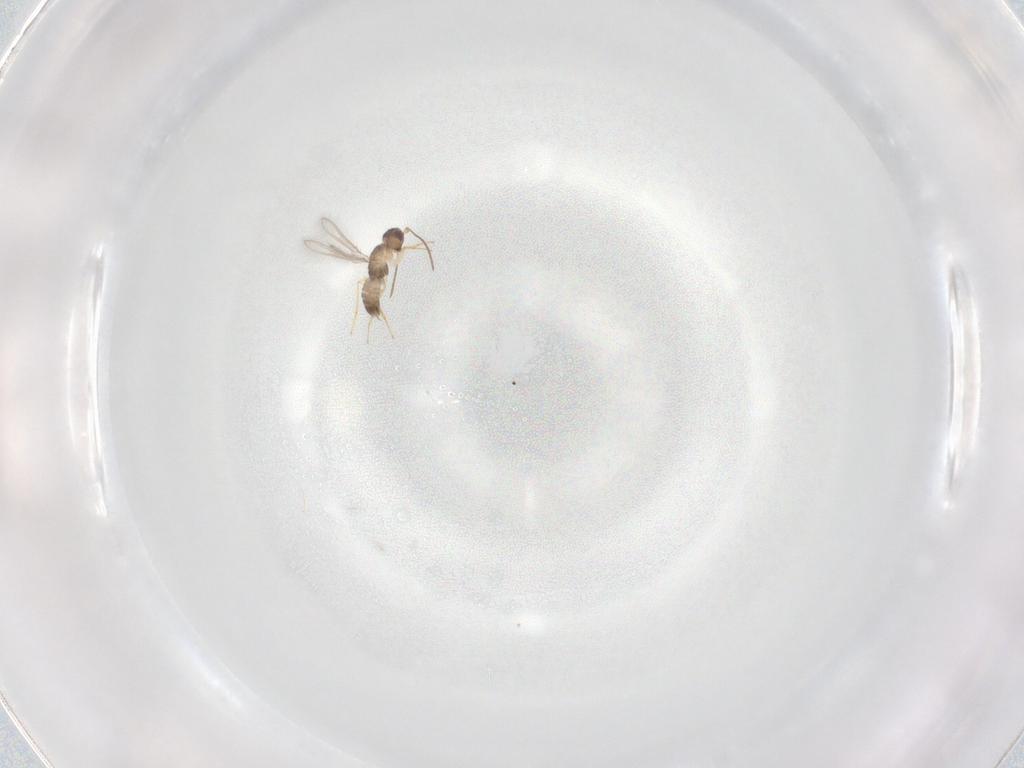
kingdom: Animalia
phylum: Arthropoda
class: Insecta
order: Hymenoptera
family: Mymaridae
